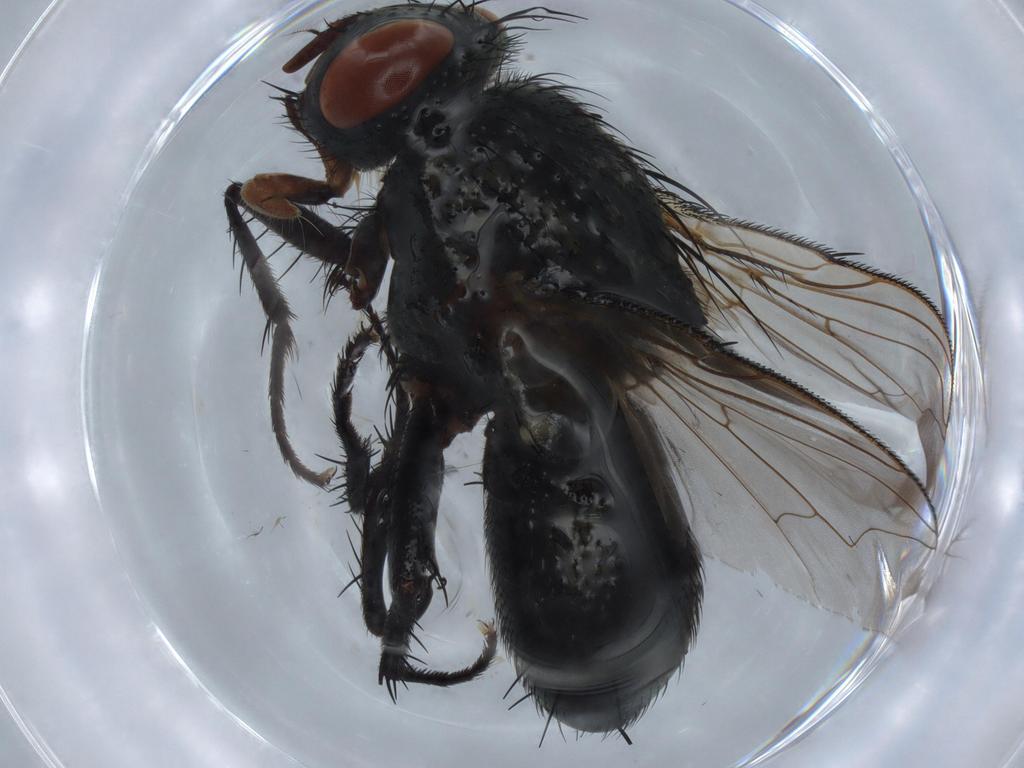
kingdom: Animalia
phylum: Arthropoda
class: Insecta
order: Diptera
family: Sarcophagidae
